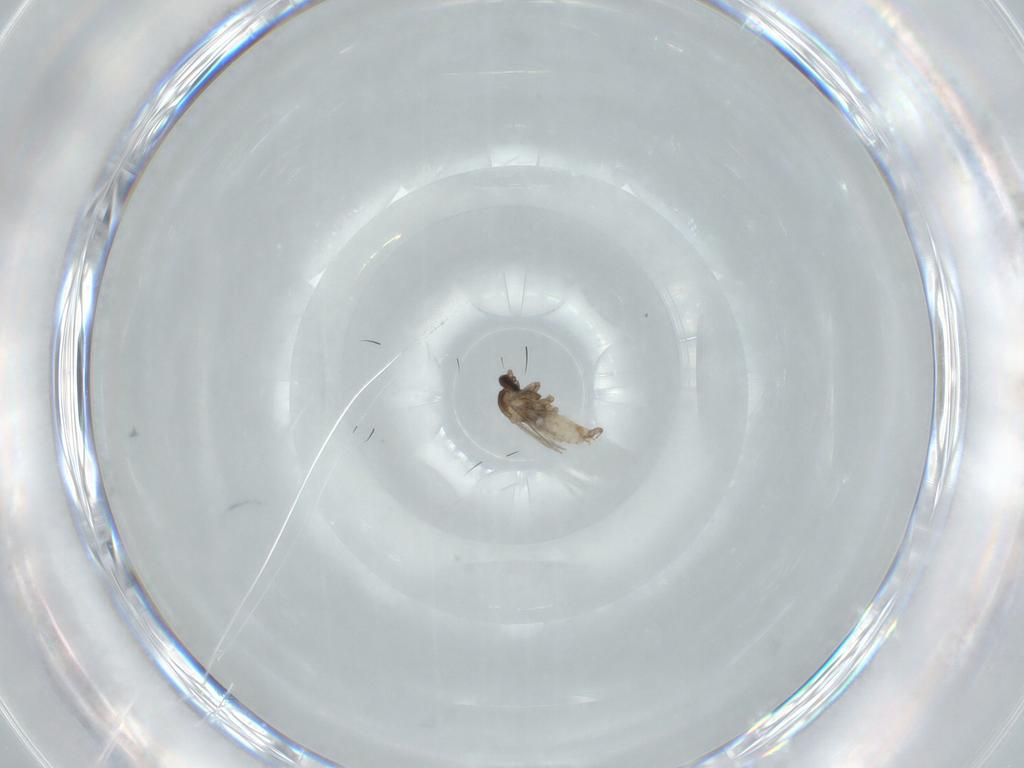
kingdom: Animalia
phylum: Arthropoda
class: Insecta
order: Diptera
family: Cecidomyiidae
